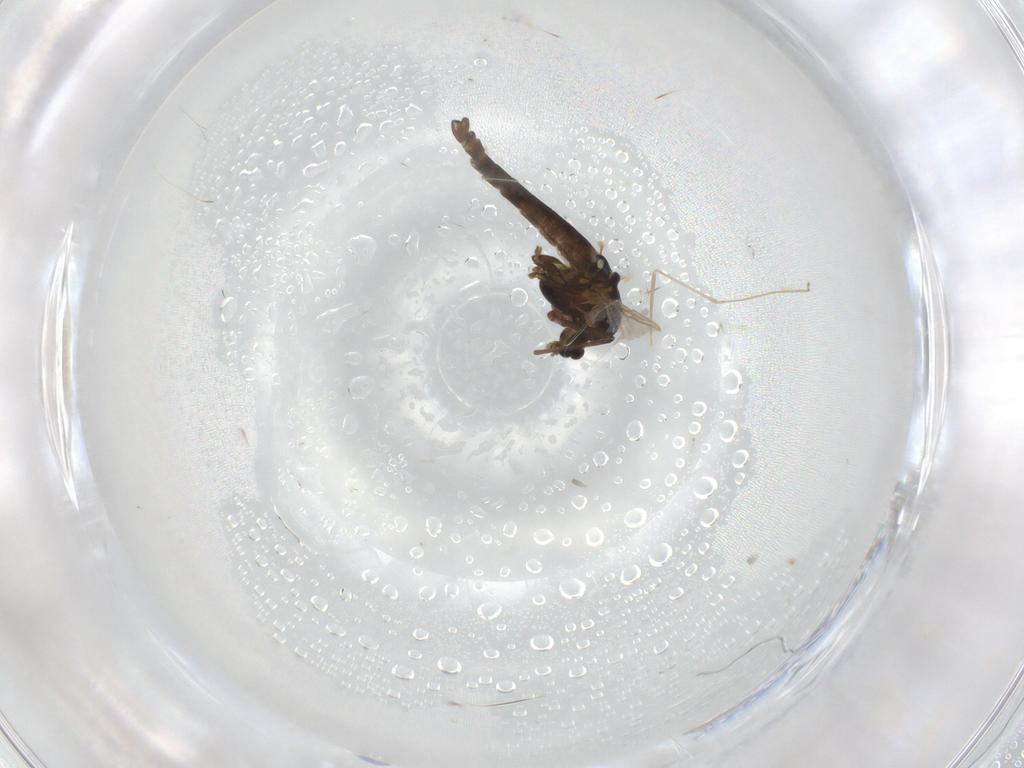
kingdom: Animalia
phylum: Arthropoda
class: Insecta
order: Diptera
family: Chironomidae
